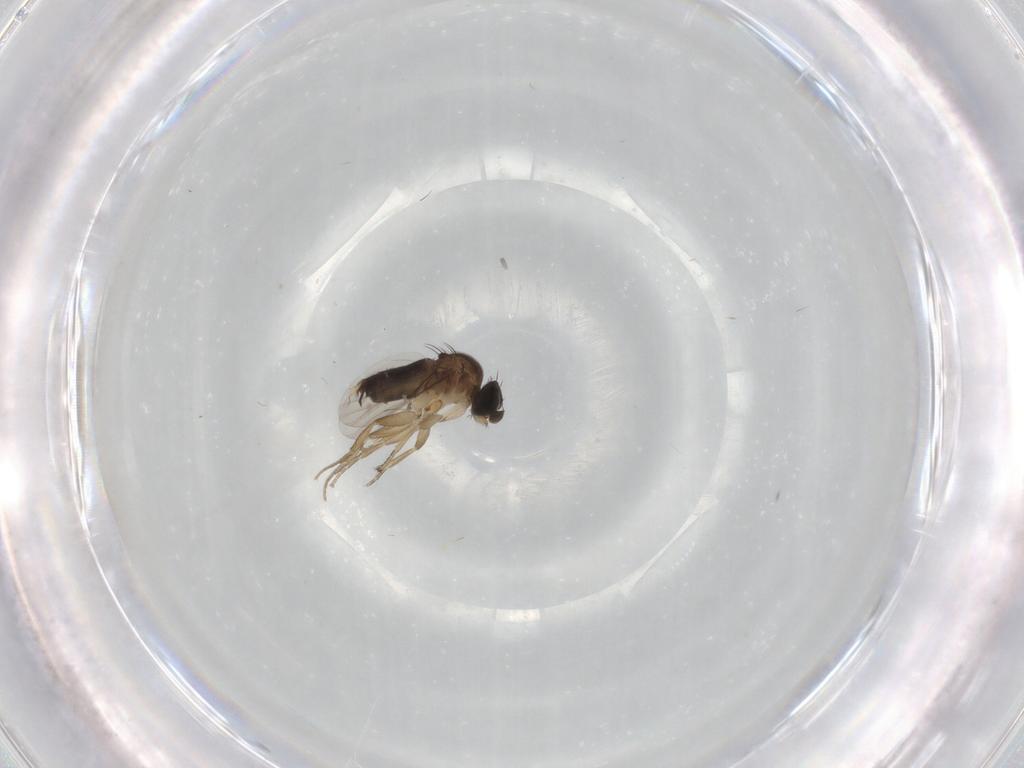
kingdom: Animalia
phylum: Arthropoda
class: Insecta
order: Diptera
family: Phoridae
